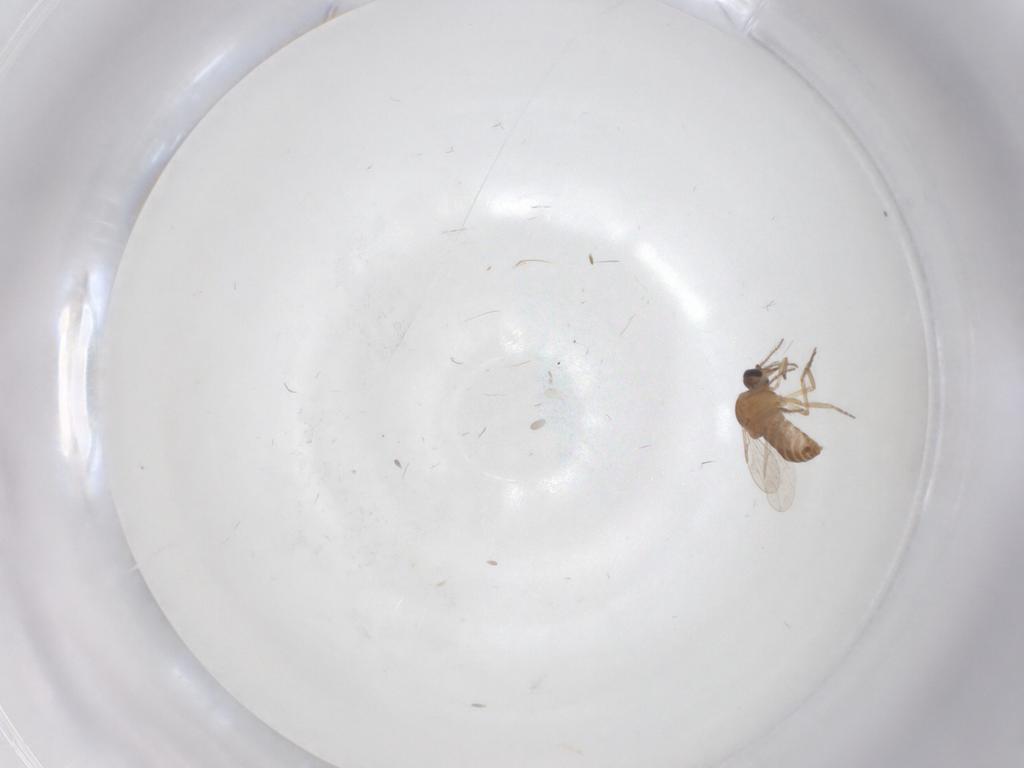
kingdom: Animalia
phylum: Arthropoda
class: Insecta
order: Diptera
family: Ceratopogonidae
